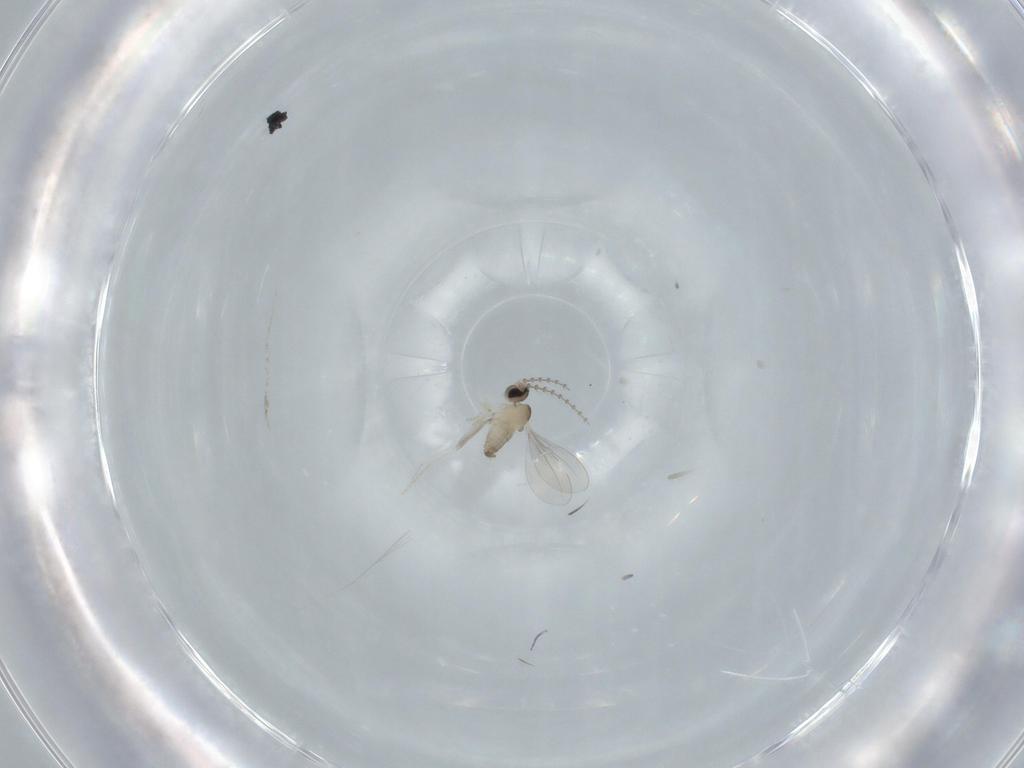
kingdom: Animalia
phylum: Arthropoda
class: Insecta
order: Diptera
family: Cecidomyiidae
